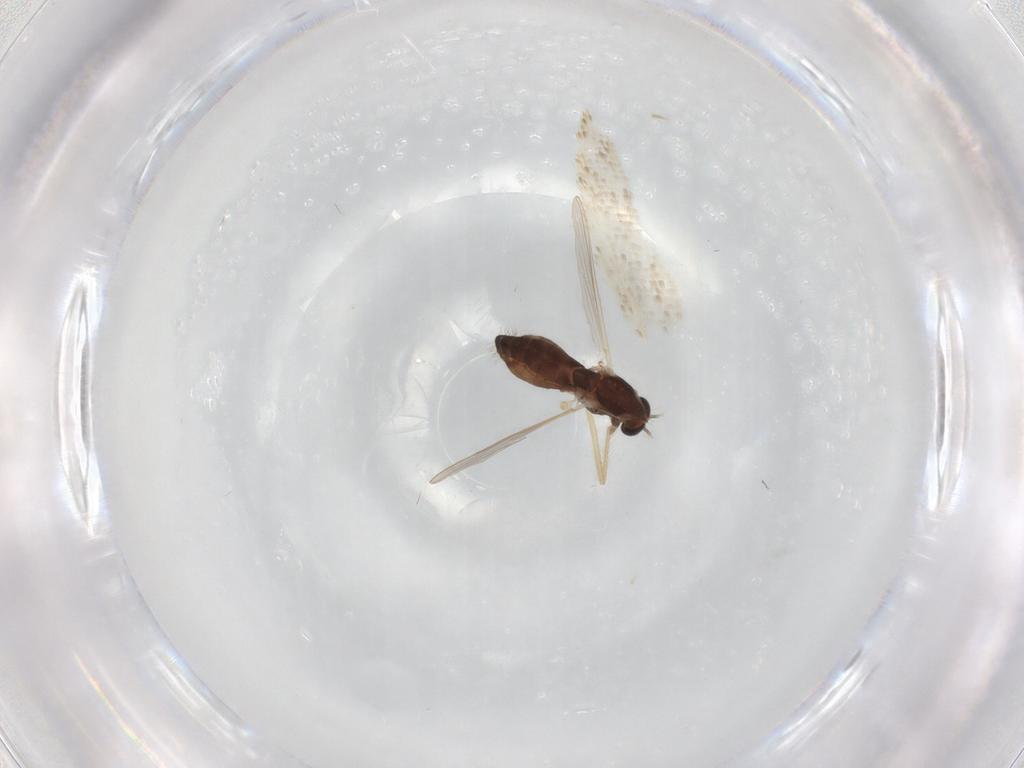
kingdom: Animalia
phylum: Arthropoda
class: Insecta
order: Diptera
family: Chironomidae
